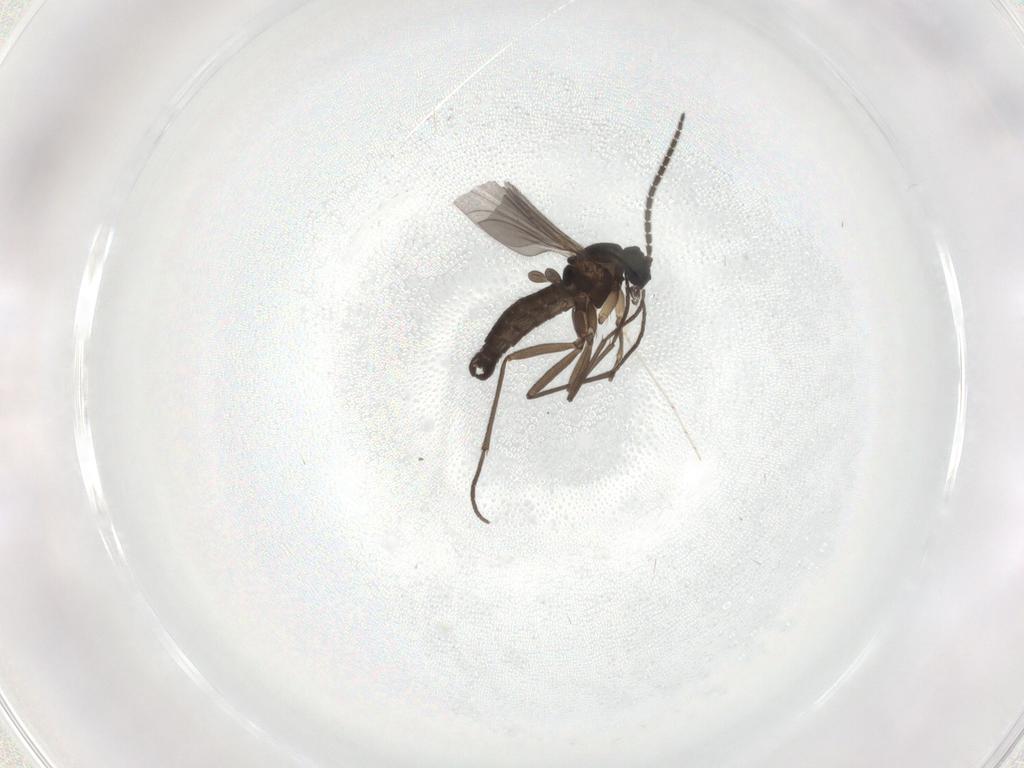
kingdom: Animalia
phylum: Arthropoda
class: Insecta
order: Diptera
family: Sciaridae
